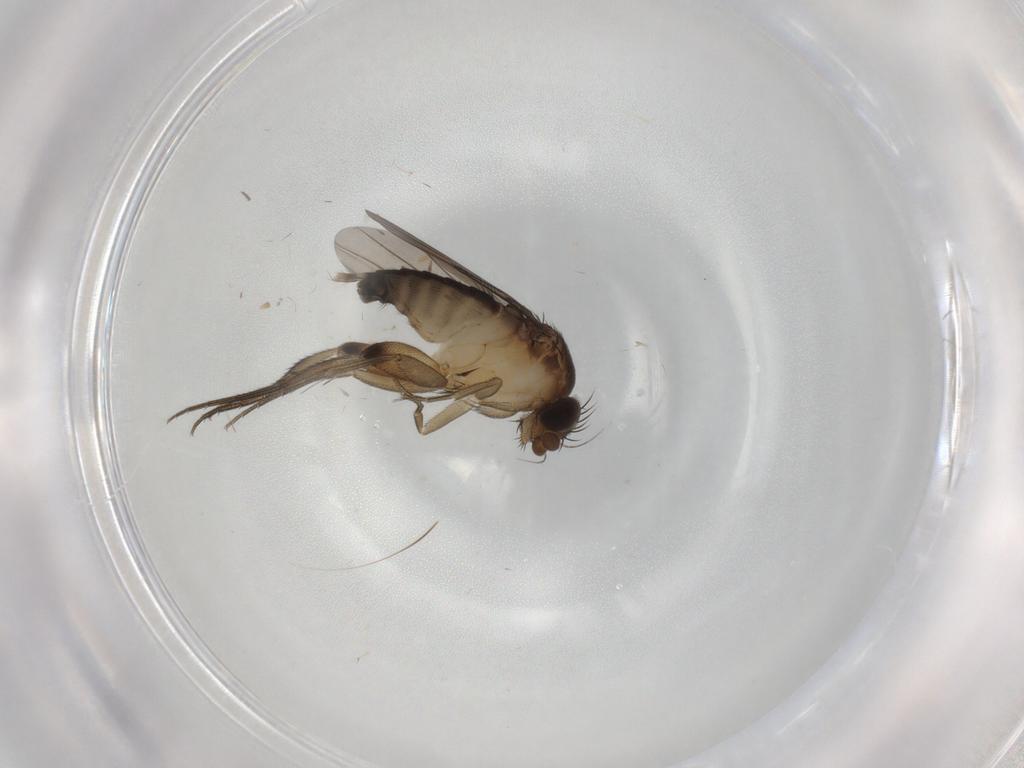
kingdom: Animalia
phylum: Arthropoda
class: Insecta
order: Diptera
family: Phoridae
